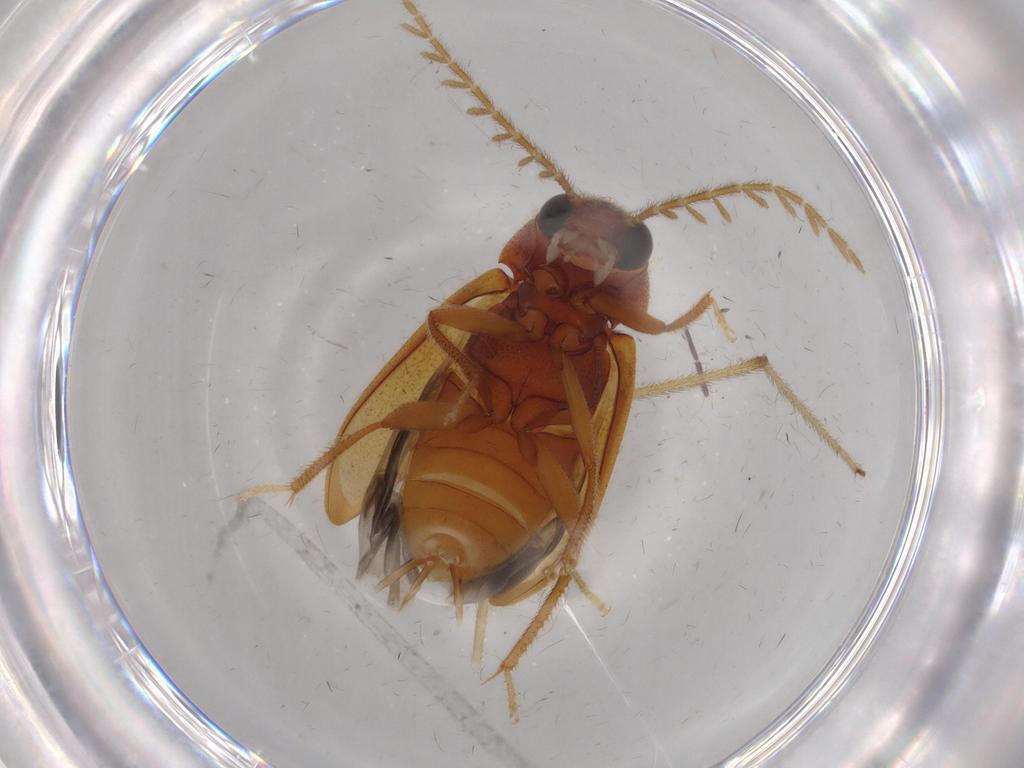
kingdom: Animalia
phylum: Arthropoda
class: Insecta
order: Coleoptera
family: Ptilodactylidae
